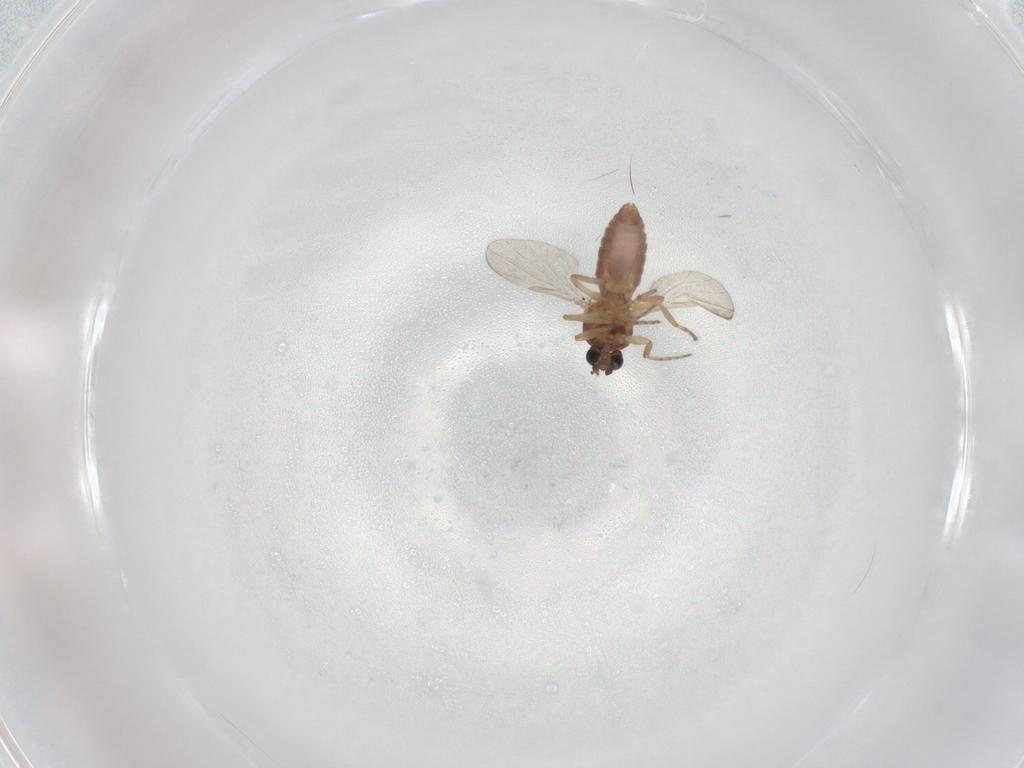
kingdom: Animalia
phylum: Arthropoda
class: Insecta
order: Diptera
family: Ceratopogonidae
